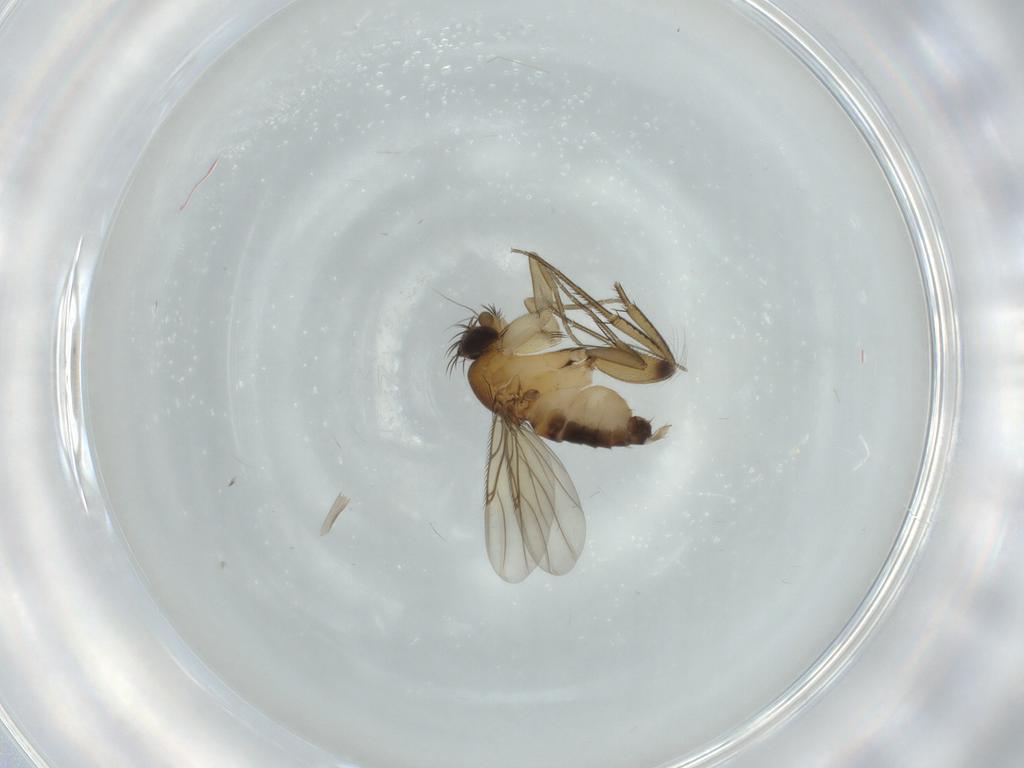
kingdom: Animalia
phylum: Arthropoda
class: Insecta
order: Diptera
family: Phoridae
